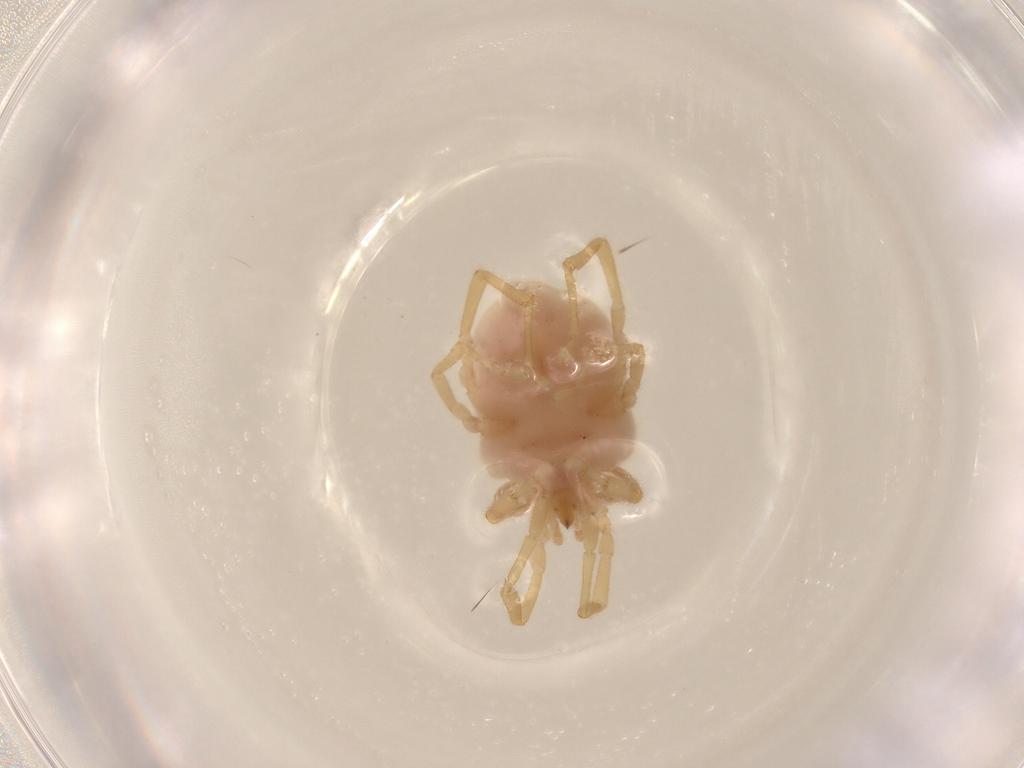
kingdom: Animalia
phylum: Arthropoda
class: Arachnida
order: Trombidiformes
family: Erythraeidae
